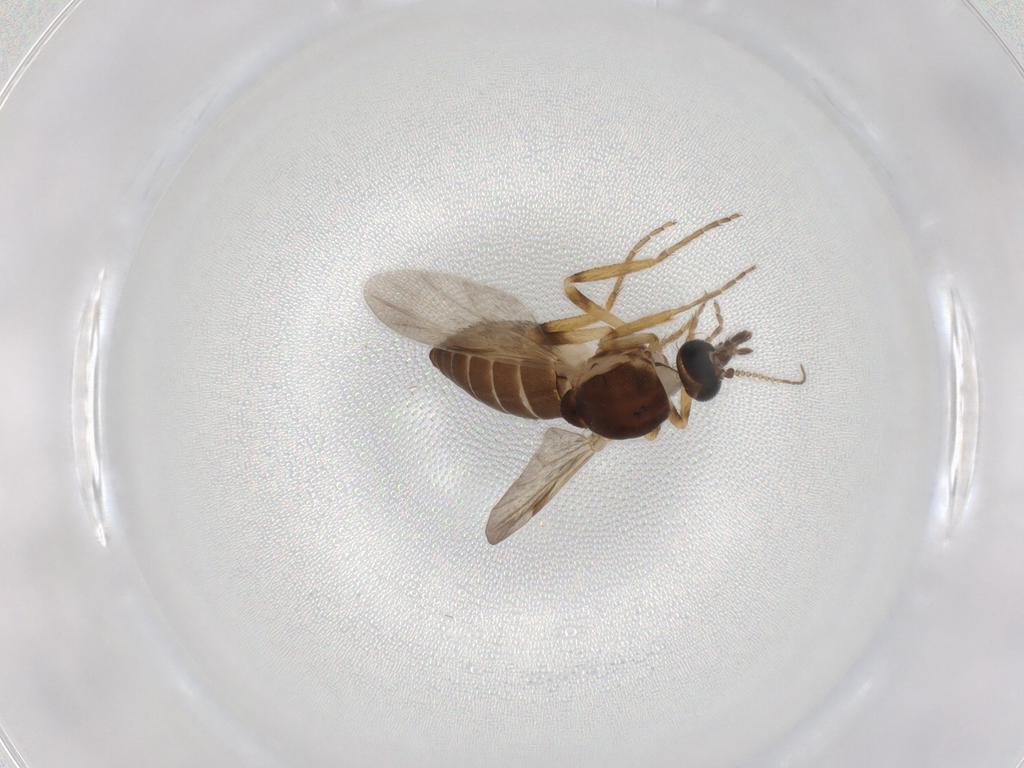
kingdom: Animalia
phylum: Arthropoda
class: Insecta
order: Diptera
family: Ceratopogonidae
